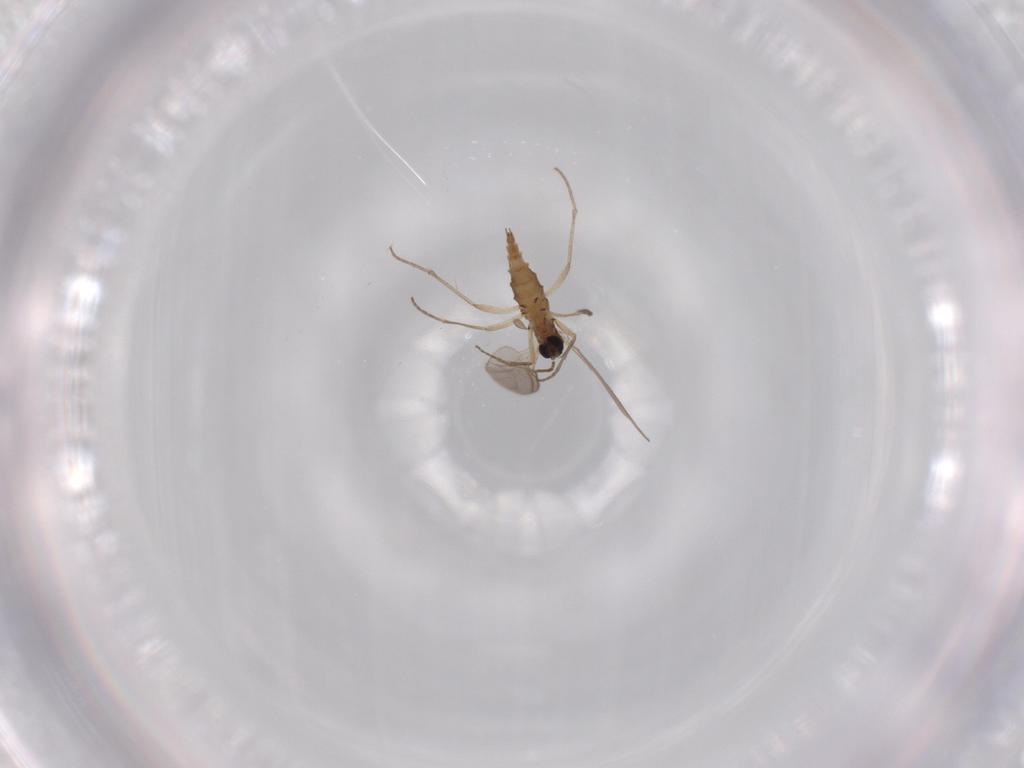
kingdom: Animalia
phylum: Arthropoda
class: Insecta
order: Diptera
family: Sciaridae
